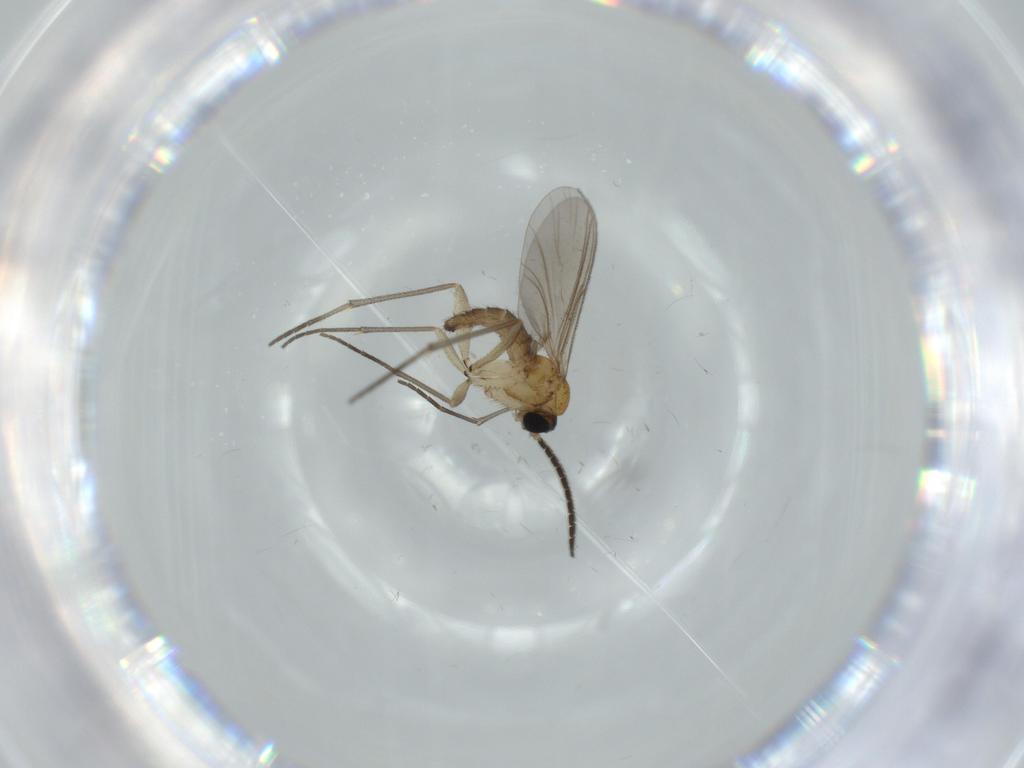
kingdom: Animalia
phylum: Arthropoda
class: Insecta
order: Diptera
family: Sciaridae
